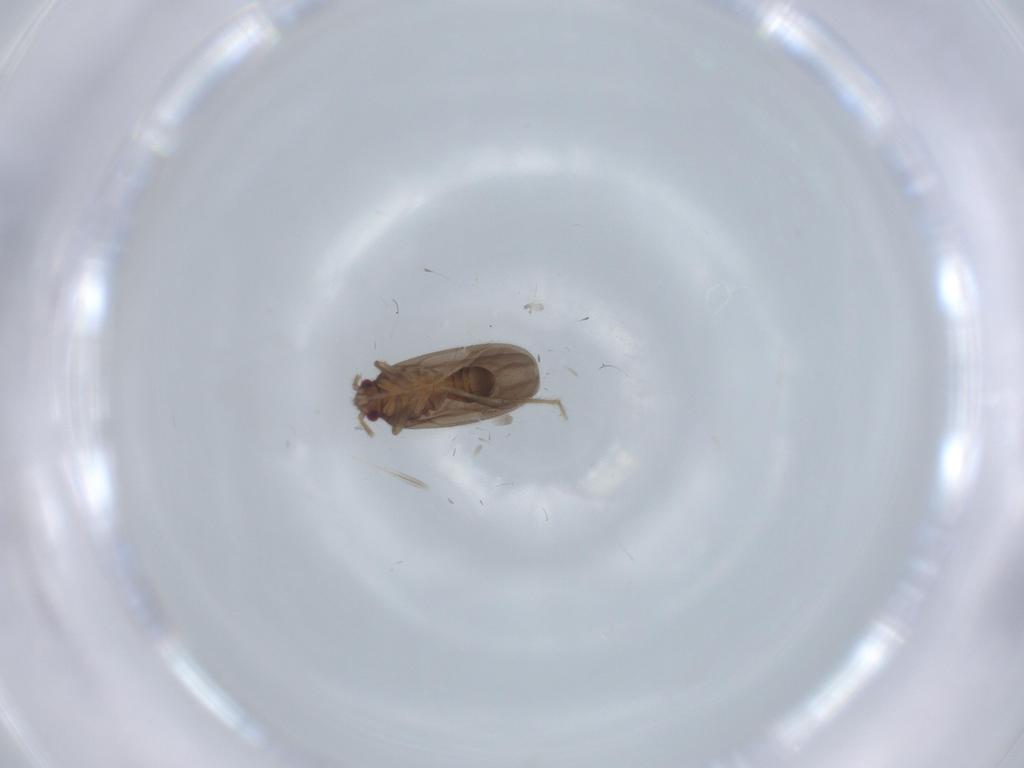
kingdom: Animalia
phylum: Arthropoda
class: Insecta
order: Hemiptera
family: Ceratocombidae
